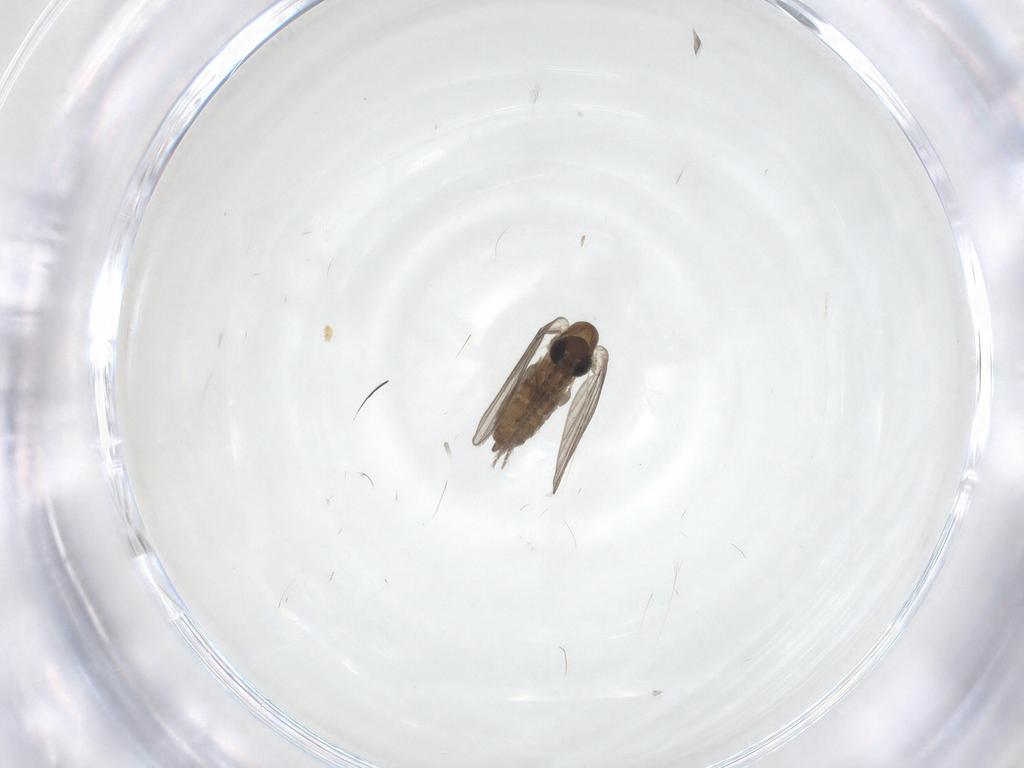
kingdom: Animalia
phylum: Arthropoda
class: Insecta
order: Diptera
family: Psychodidae
